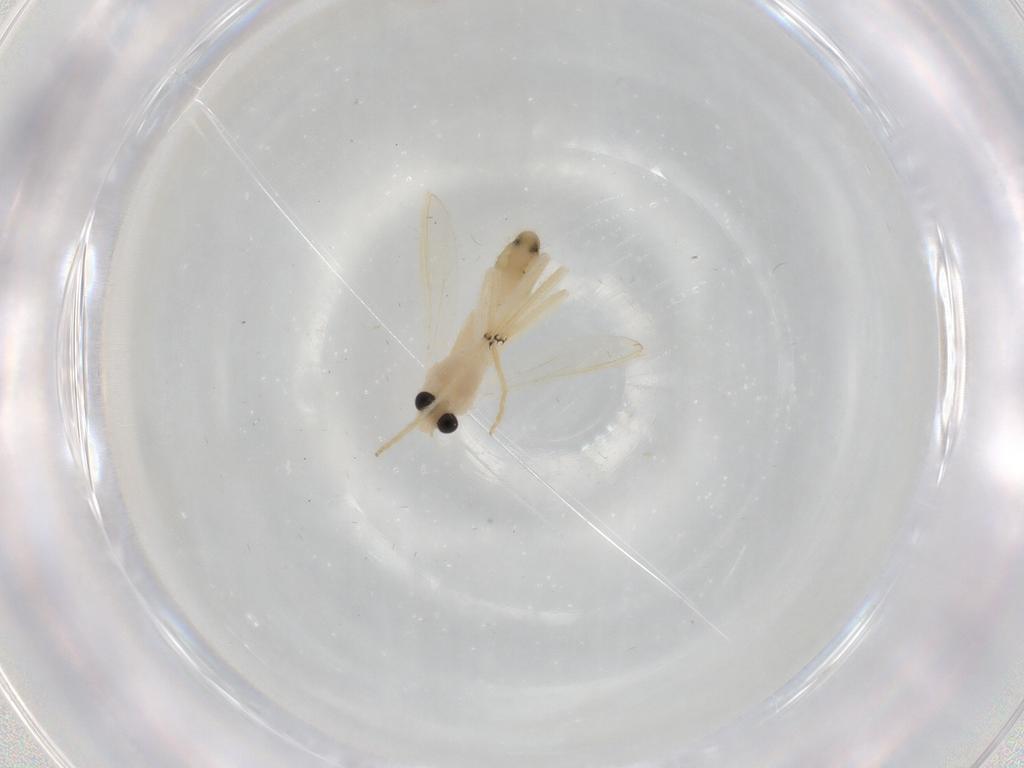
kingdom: Animalia
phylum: Arthropoda
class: Insecta
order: Diptera
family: Chironomidae
